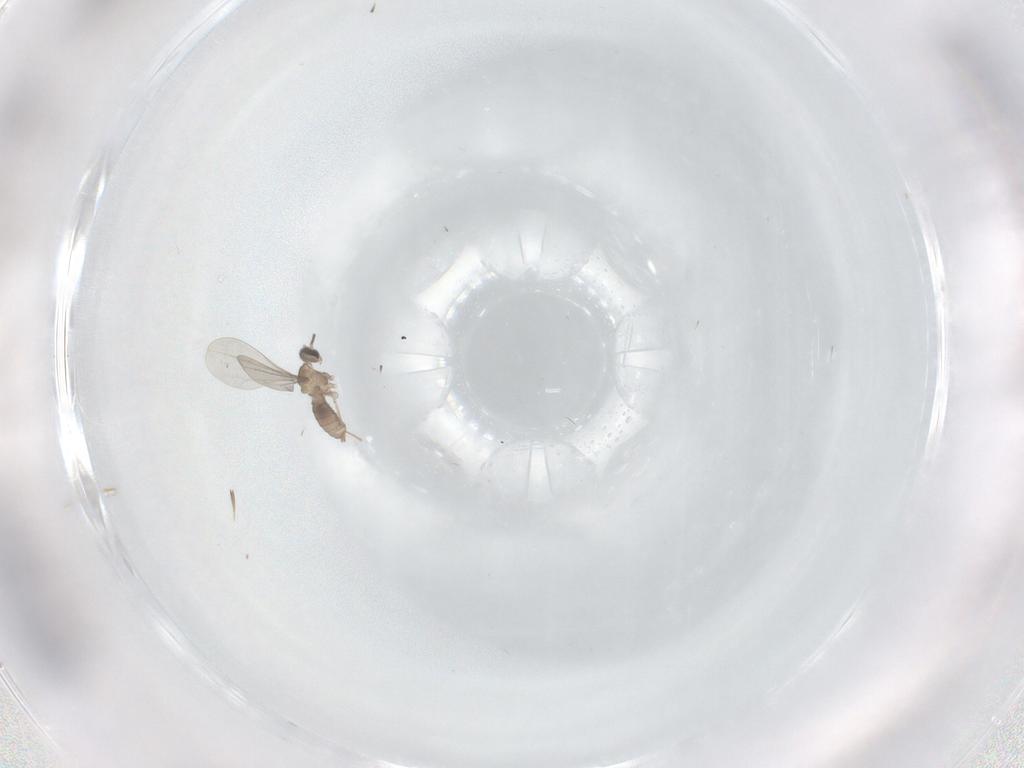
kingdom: Animalia
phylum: Arthropoda
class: Insecta
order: Diptera
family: Cecidomyiidae
